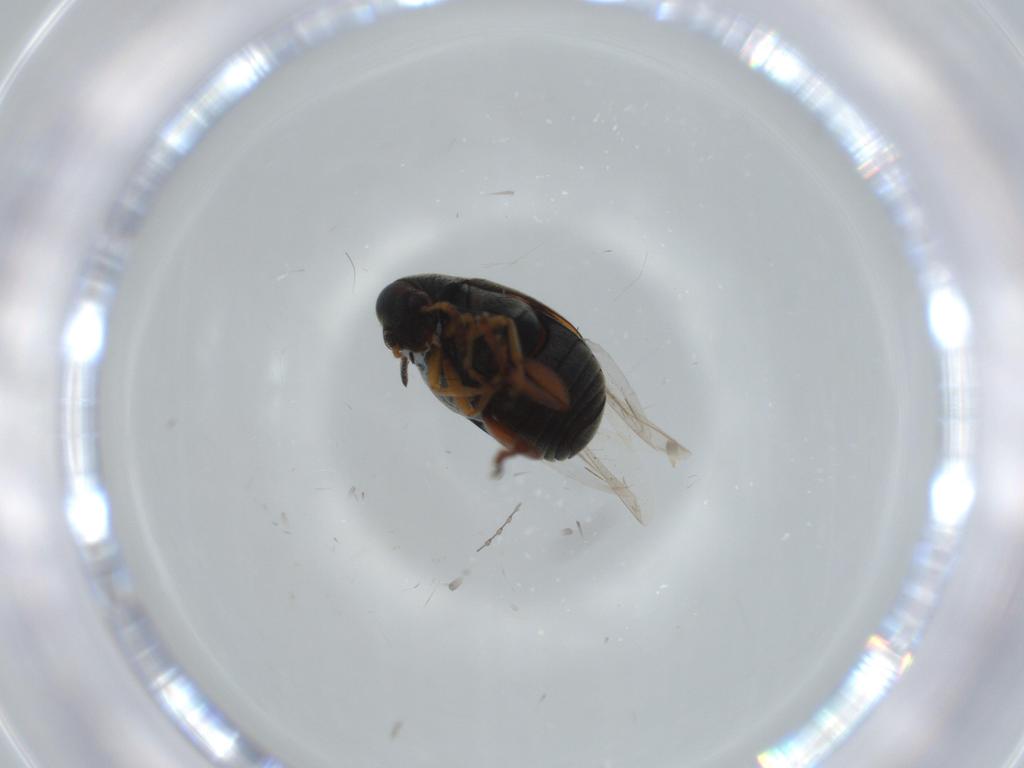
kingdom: Animalia
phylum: Arthropoda
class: Insecta
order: Coleoptera
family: Chrysomelidae
